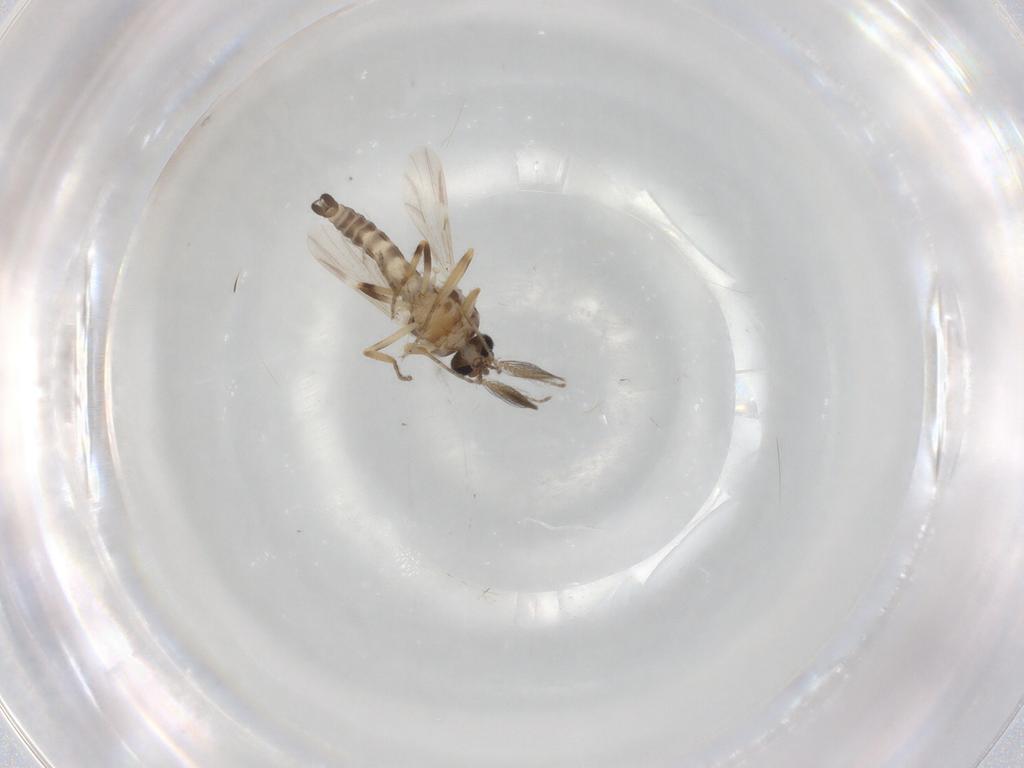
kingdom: Animalia
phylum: Arthropoda
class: Insecta
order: Diptera
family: Ceratopogonidae
